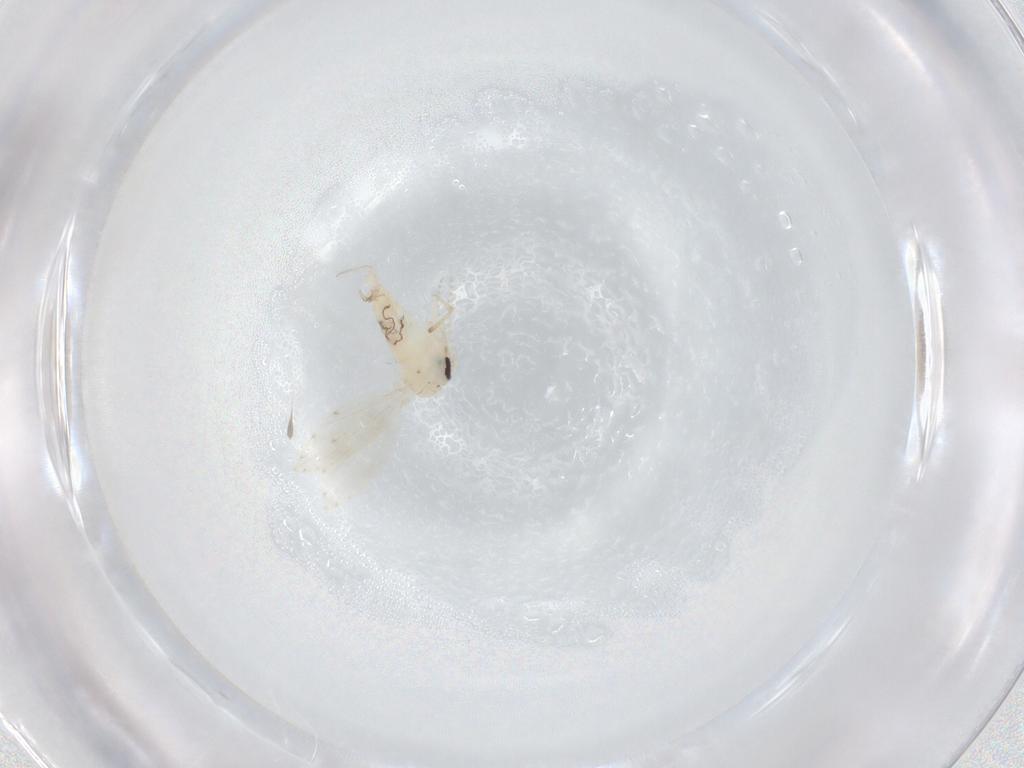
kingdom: Animalia
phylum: Arthropoda
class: Insecta
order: Diptera
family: Psychodidae
